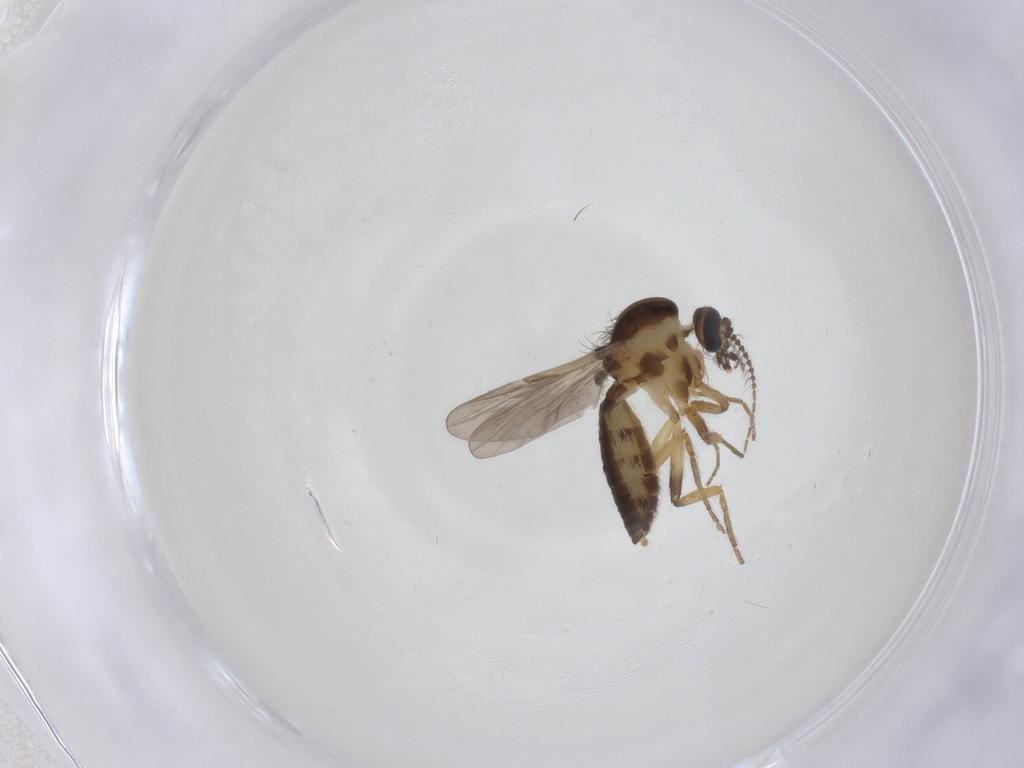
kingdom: Animalia
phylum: Arthropoda
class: Insecta
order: Diptera
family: Ceratopogonidae
